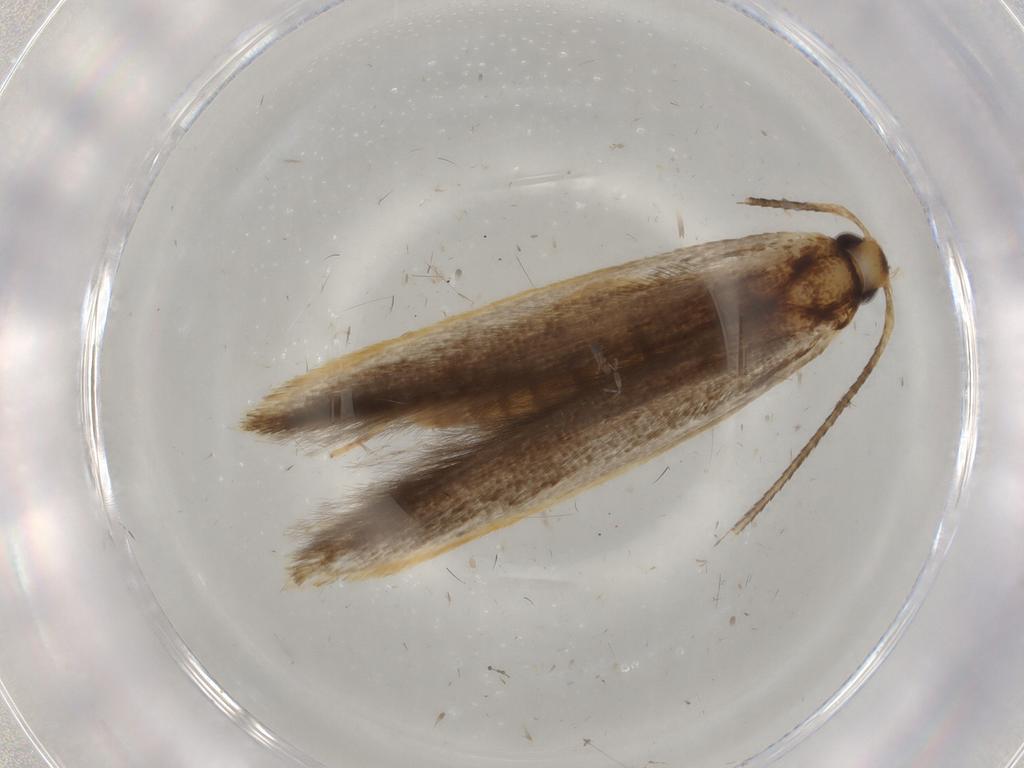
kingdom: Animalia
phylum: Arthropoda
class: Insecta
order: Lepidoptera
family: Pterolonchidae
